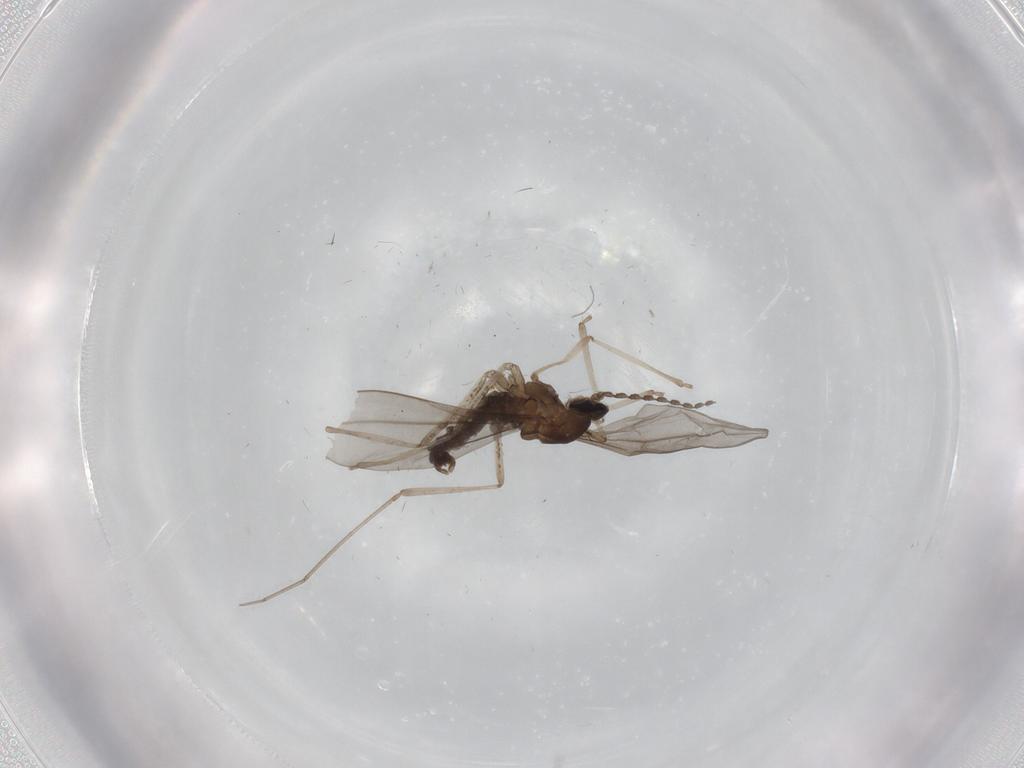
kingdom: Animalia
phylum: Arthropoda
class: Insecta
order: Diptera
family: Cecidomyiidae
